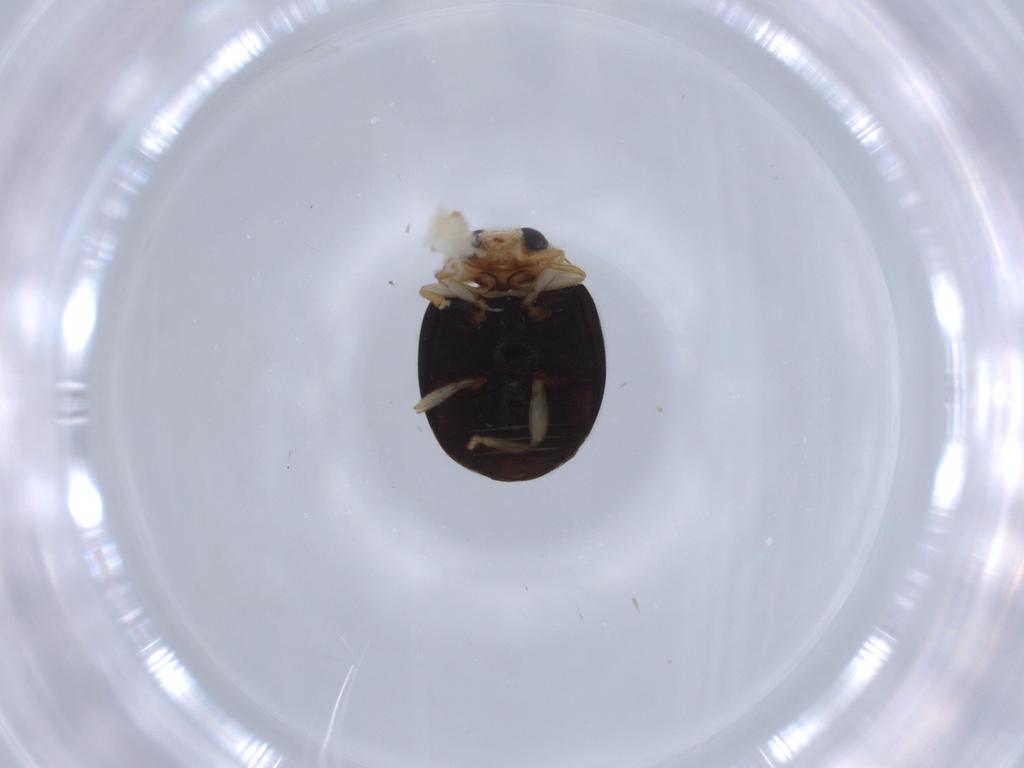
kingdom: Animalia
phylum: Arthropoda
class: Insecta
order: Coleoptera
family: Coccinellidae
